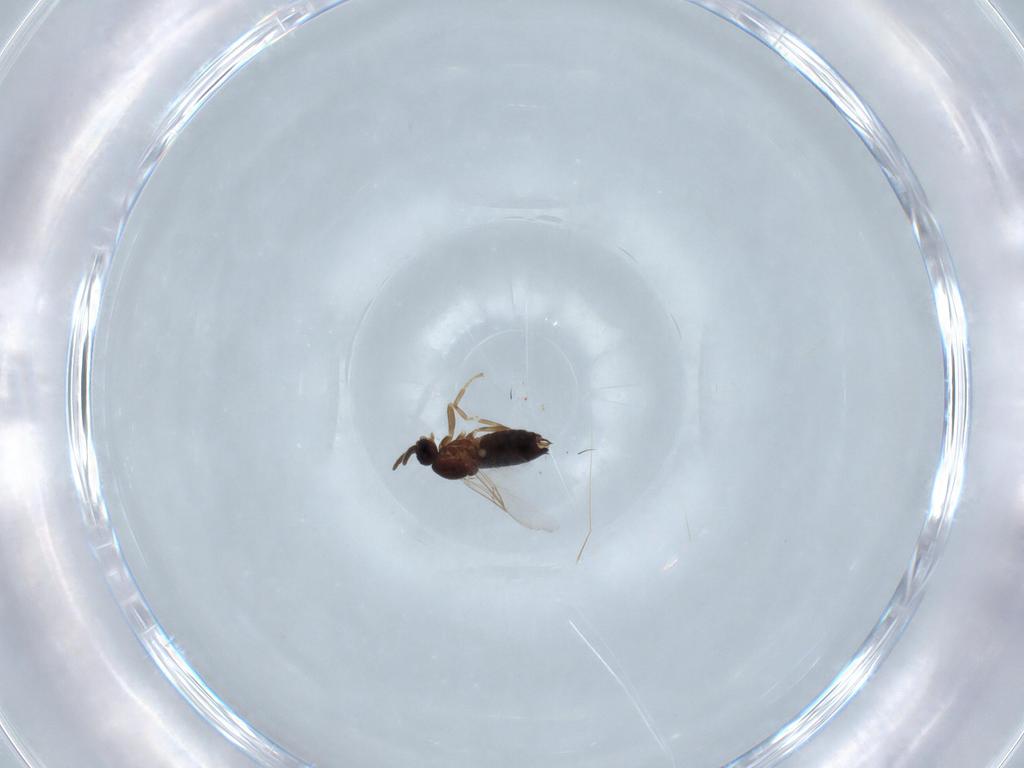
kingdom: Animalia
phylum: Arthropoda
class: Insecta
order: Diptera
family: Scatopsidae
